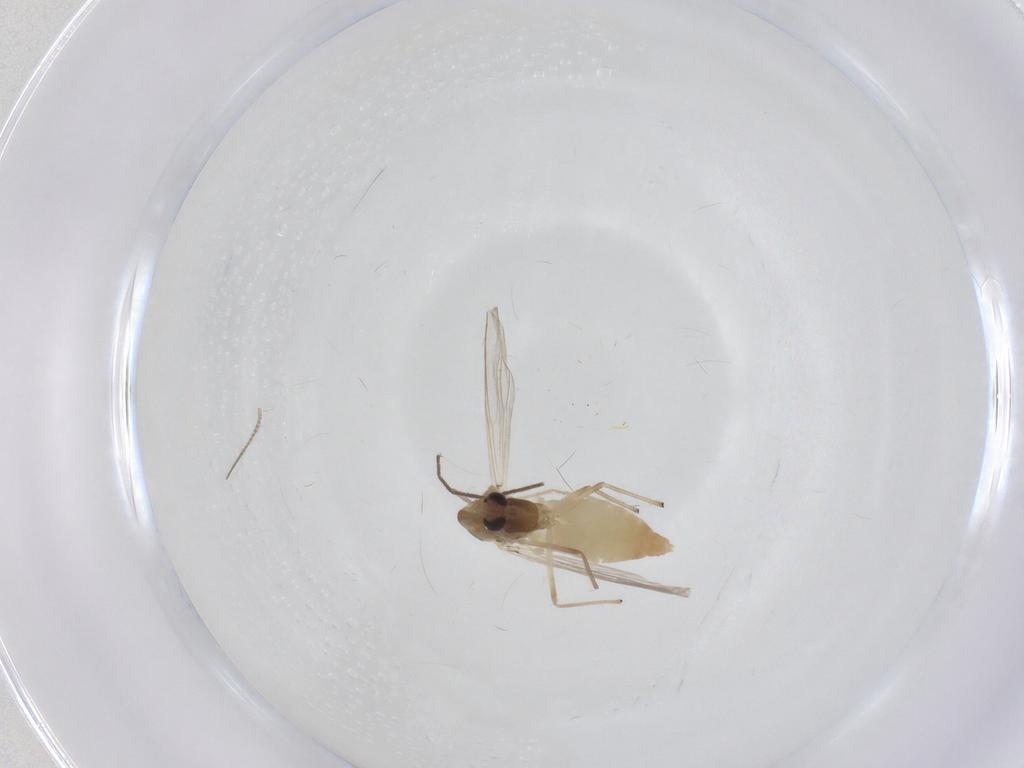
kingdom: Animalia
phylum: Arthropoda
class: Insecta
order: Diptera
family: Chironomidae
